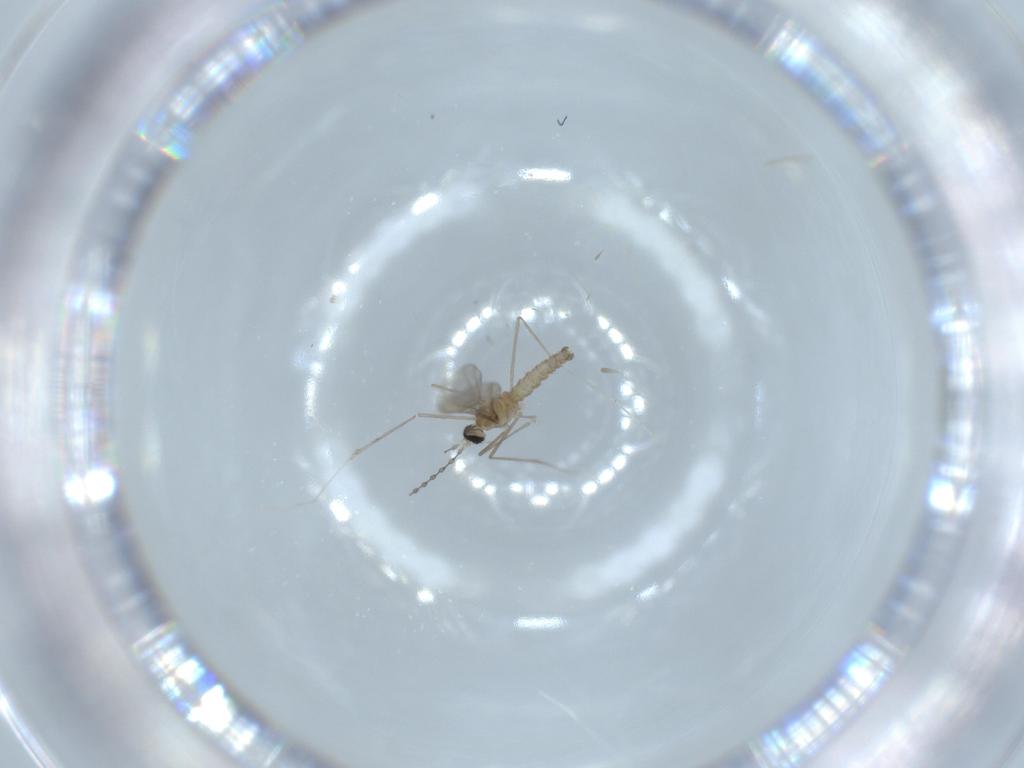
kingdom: Animalia
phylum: Arthropoda
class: Insecta
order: Diptera
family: Cecidomyiidae
